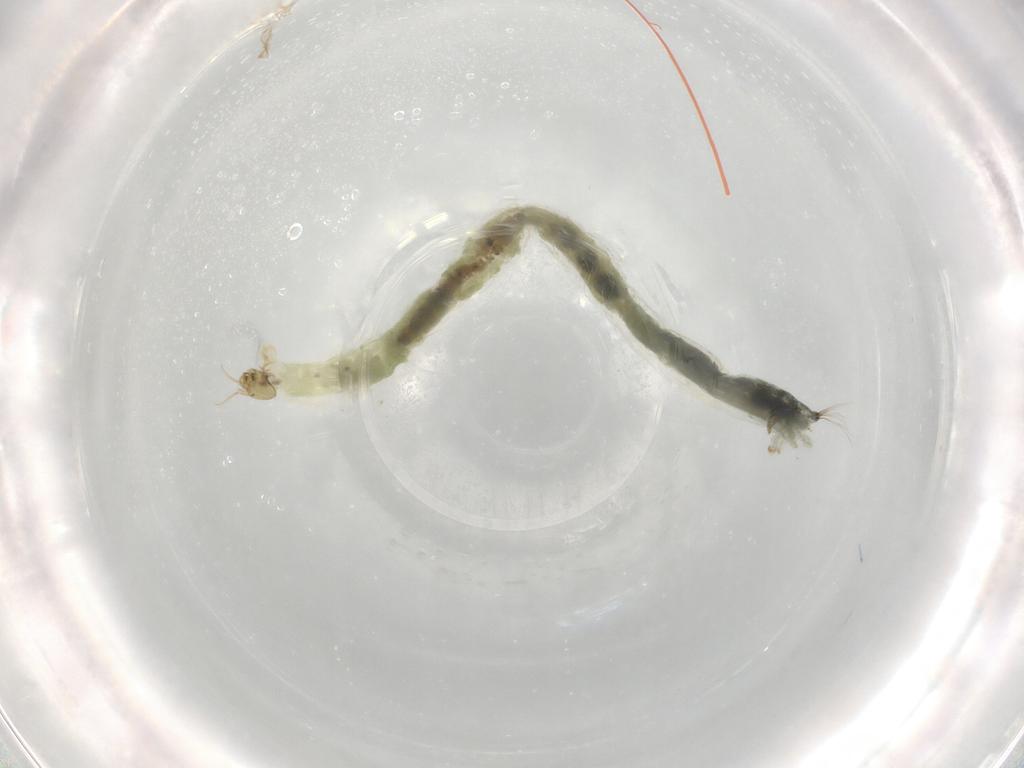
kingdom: Animalia
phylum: Arthropoda
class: Insecta
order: Diptera
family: Chironomidae
